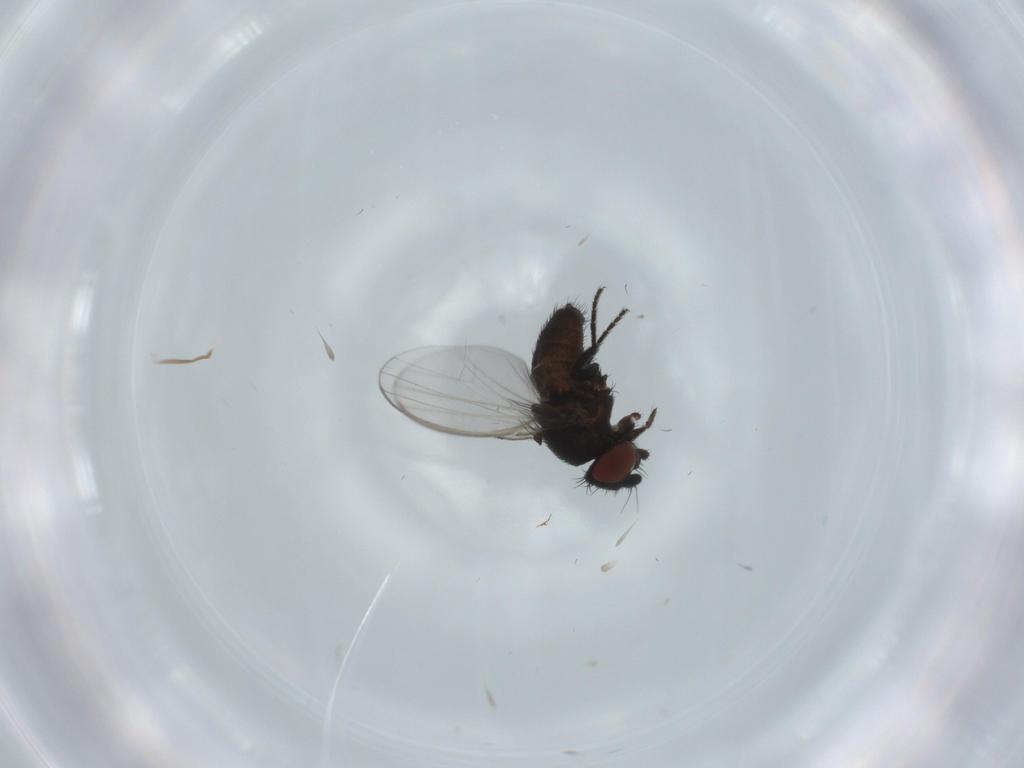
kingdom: Animalia
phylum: Arthropoda
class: Insecta
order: Diptera
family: Milichiidae
